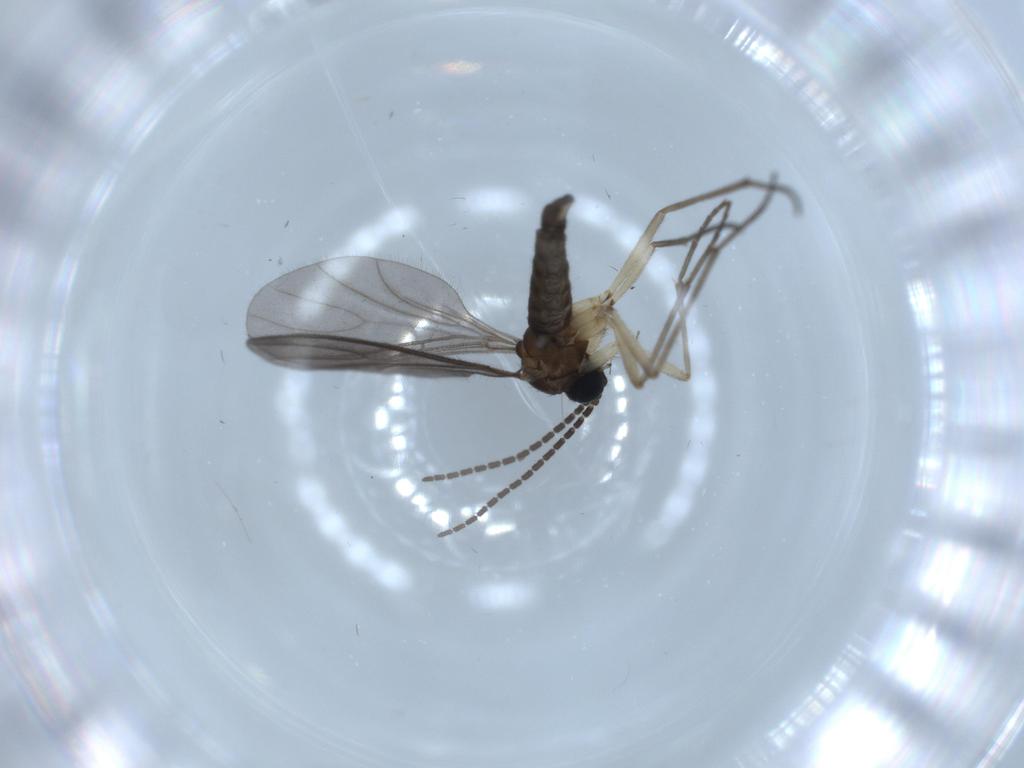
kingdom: Animalia
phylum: Arthropoda
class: Insecta
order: Diptera
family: Sciaridae
